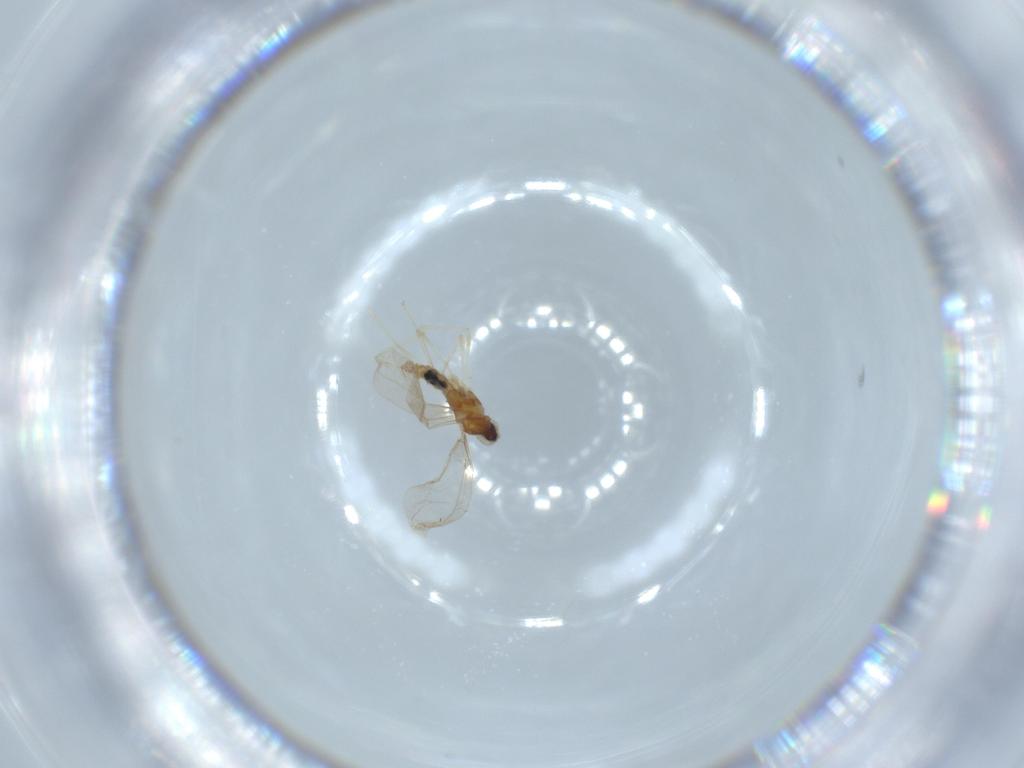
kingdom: Animalia
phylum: Arthropoda
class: Insecta
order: Diptera
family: Cecidomyiidae
